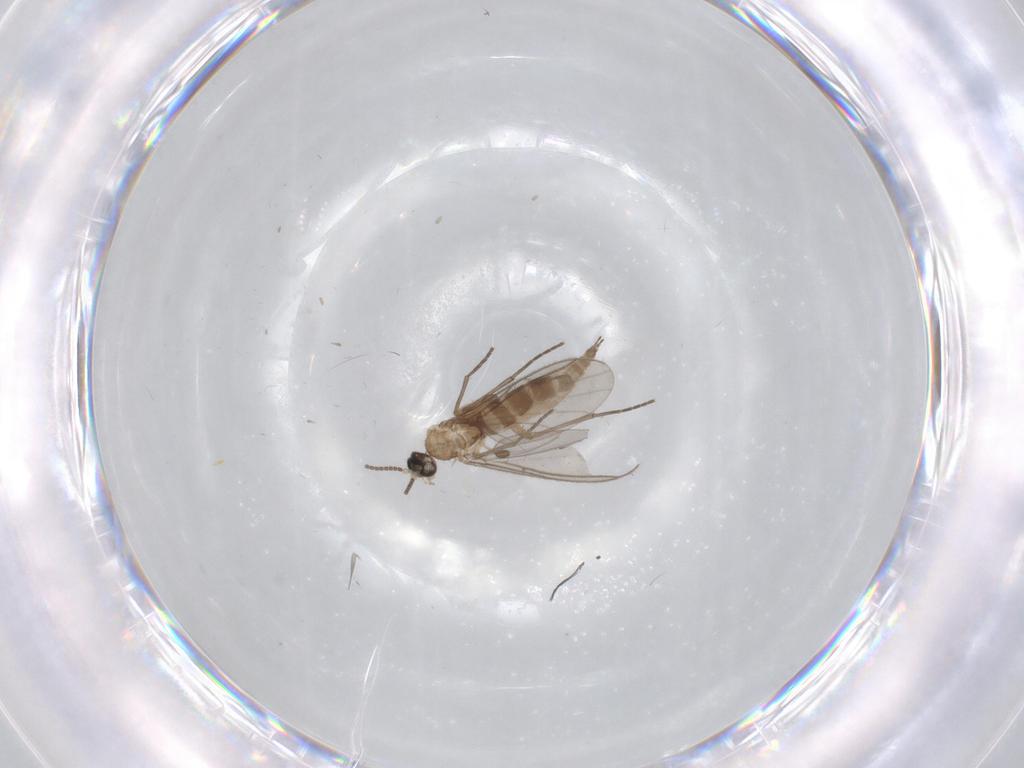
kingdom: Animalia
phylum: Arthropoda
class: Insecta
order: Diptera
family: Sciaridae
